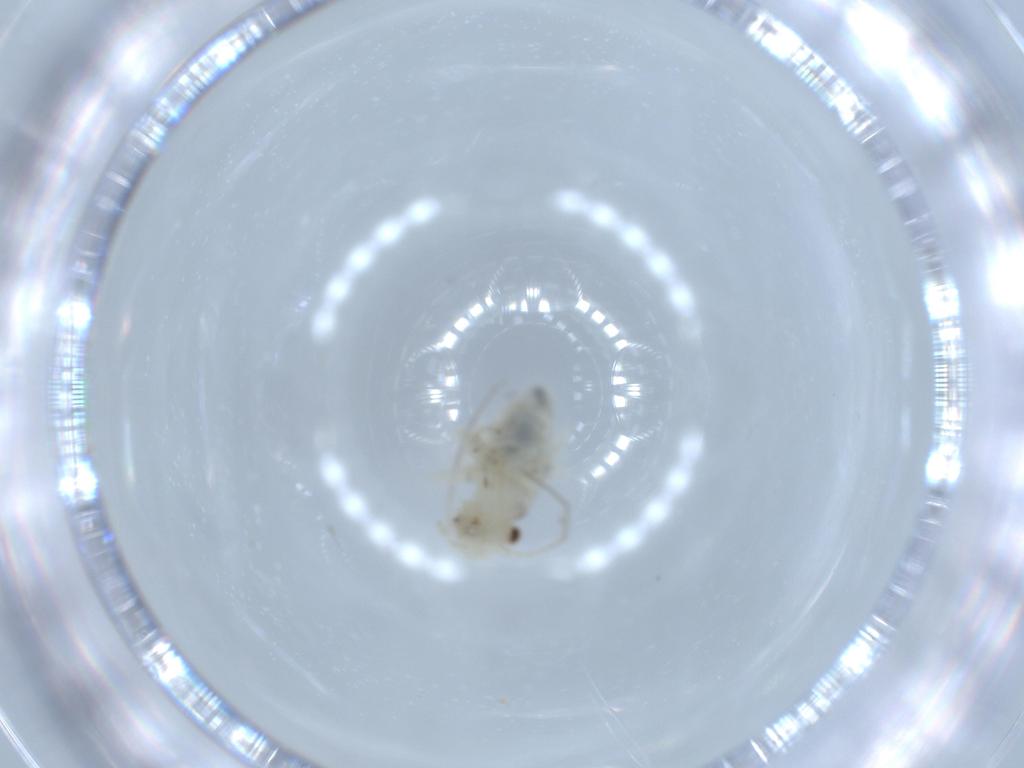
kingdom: Animalia
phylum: Arthropoda
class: Insecta
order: Psocodea
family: Caeciliusidae
